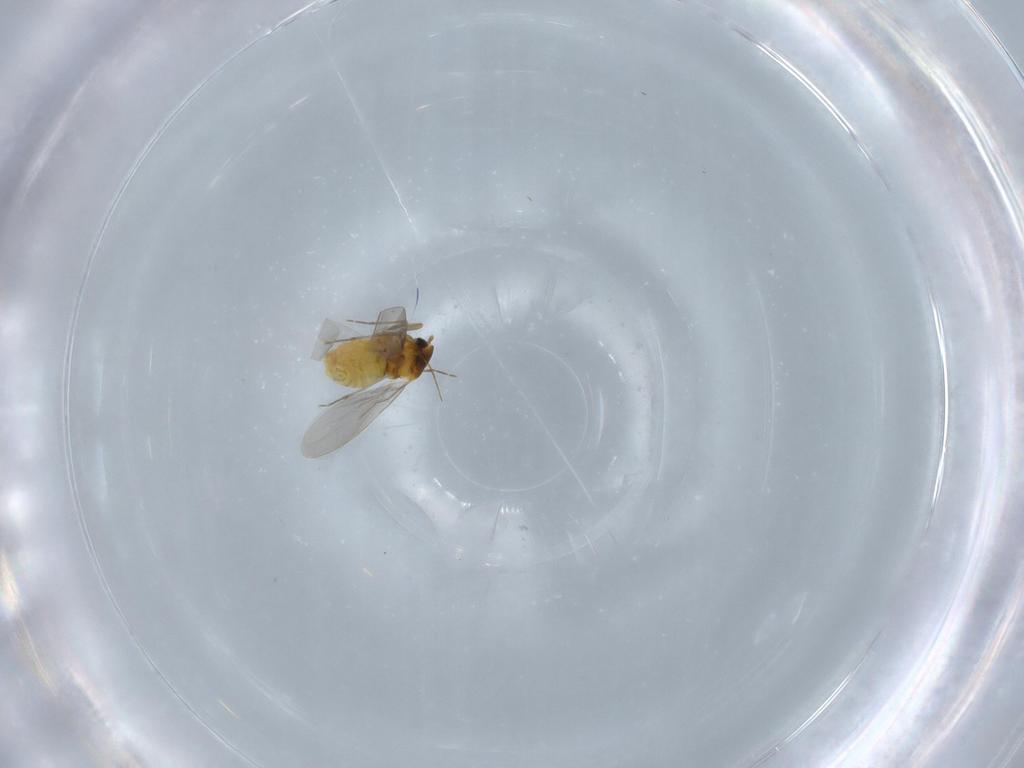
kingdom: Animalia
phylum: Arthropoda
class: Insecta
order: Hemiptera
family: Aleyrodidae
